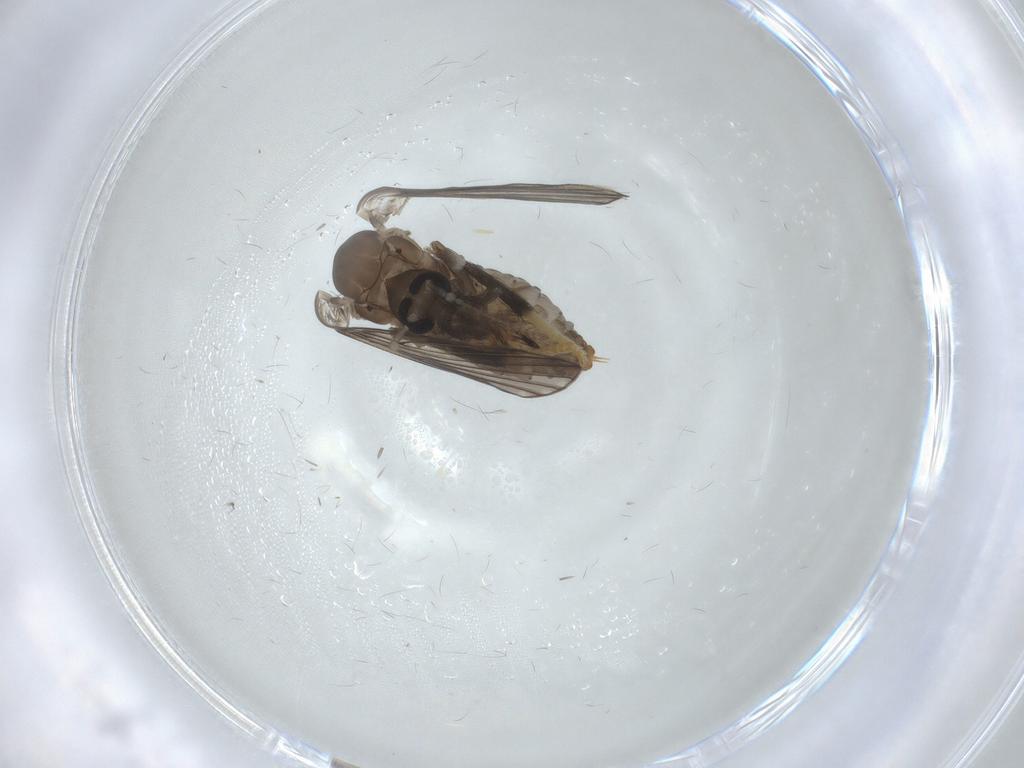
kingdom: Animalia
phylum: Arthropoda
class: Insecta
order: Diptera
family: Psychodidae
